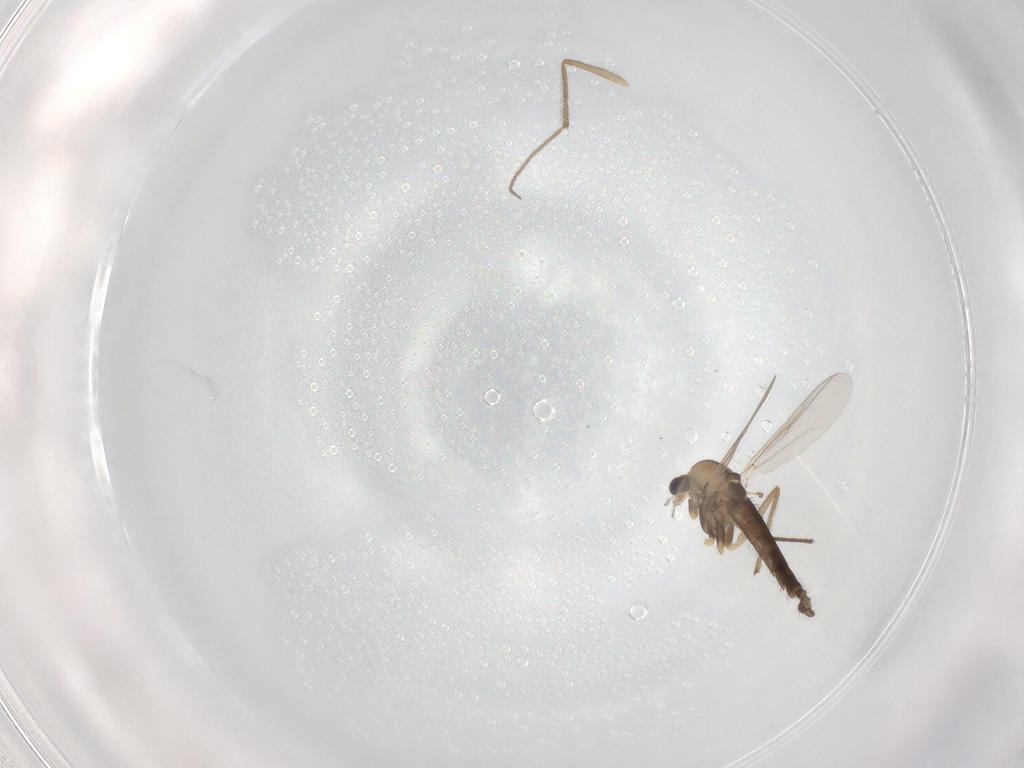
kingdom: Animalia
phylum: Arthropoda
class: Insecta
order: Diptera
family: Chironomidae
